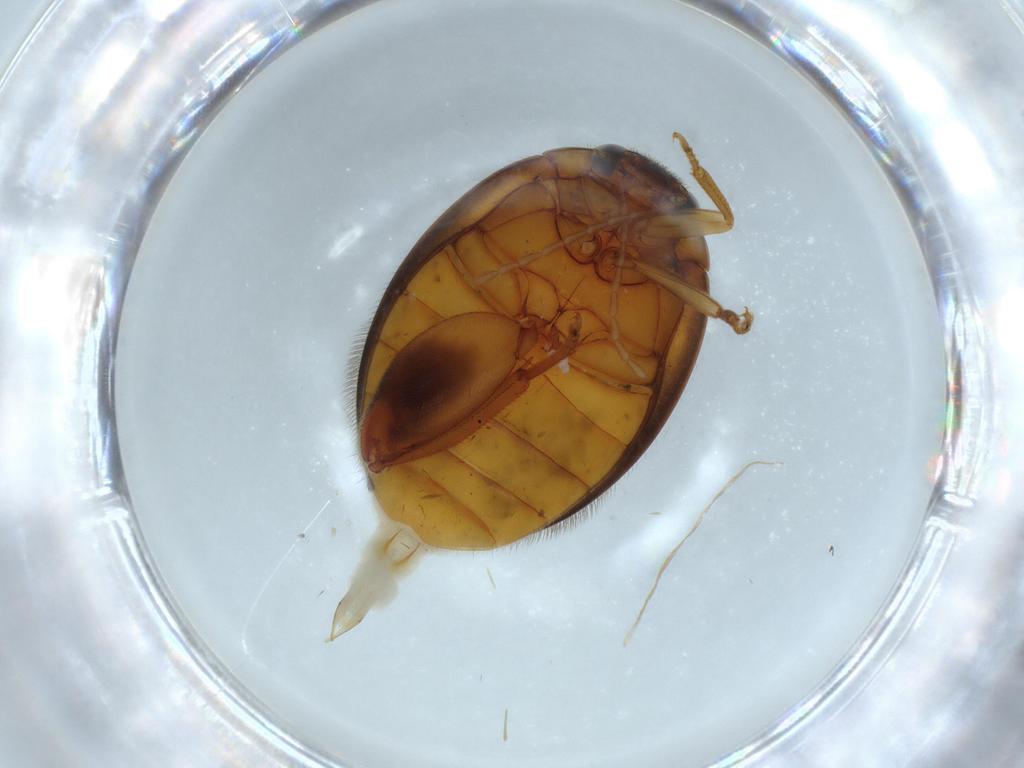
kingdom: Animalia
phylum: Arthropoda
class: Insecta
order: Coleoptera
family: Scirtidae
